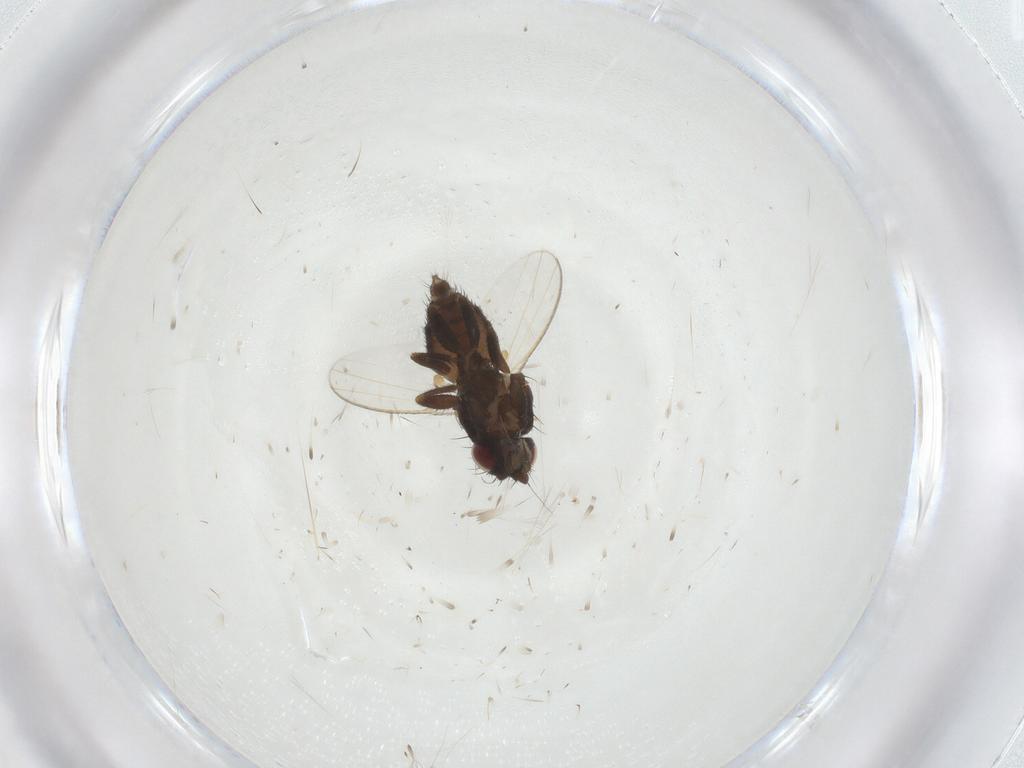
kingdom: Animalia
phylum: Arthropoda
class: Insecta
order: Diptera
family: Milichiidae
